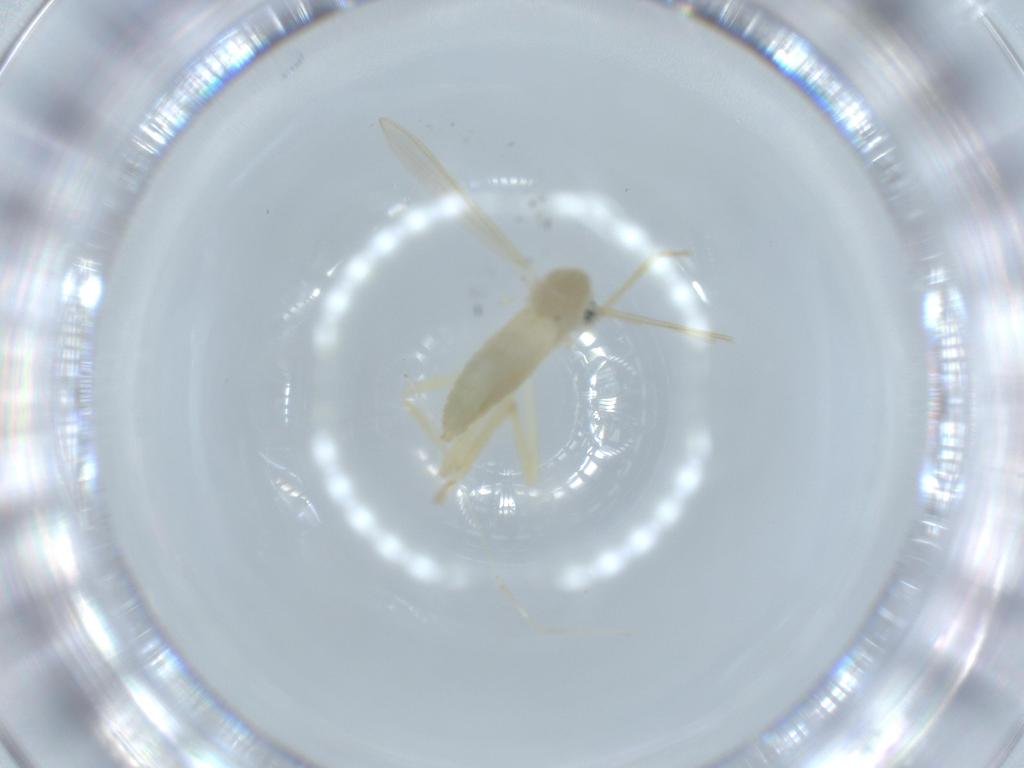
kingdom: Animalia
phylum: Arthropoda
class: Insecta
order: Diptera
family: Chironomidae
